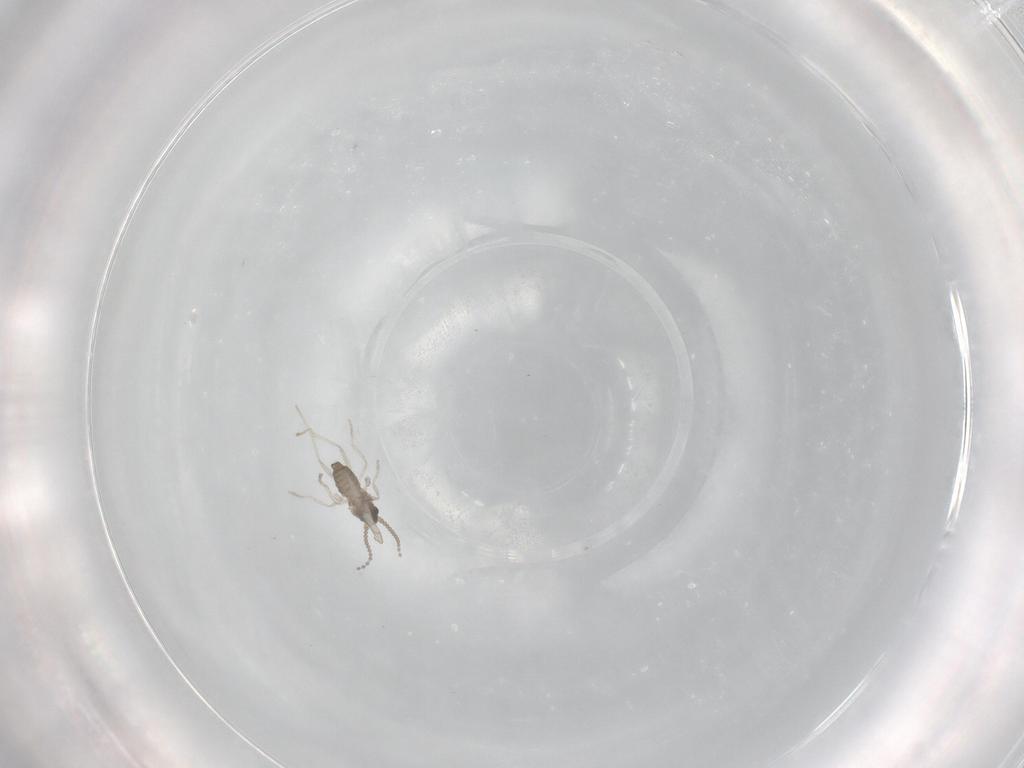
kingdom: Animalia
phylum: Arthropoda
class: Insecta
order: Diptera
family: Cecidomyiidae
